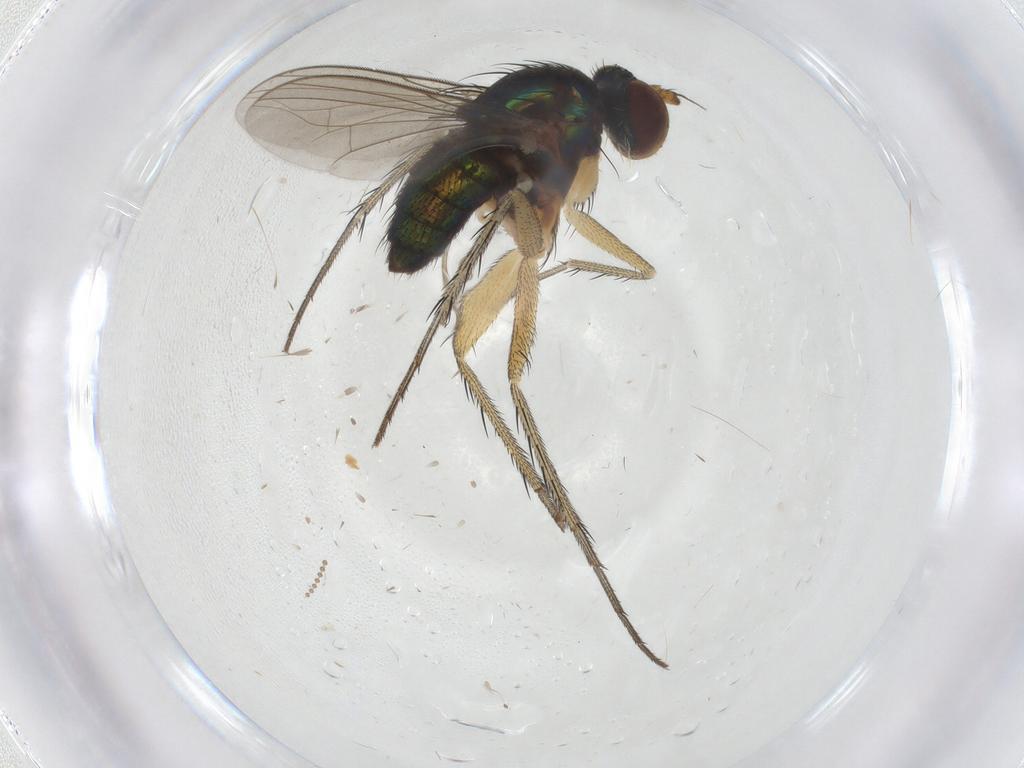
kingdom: Animalia
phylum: Arthropoda
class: Insecta
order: Diptera
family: Dolichopodidae
